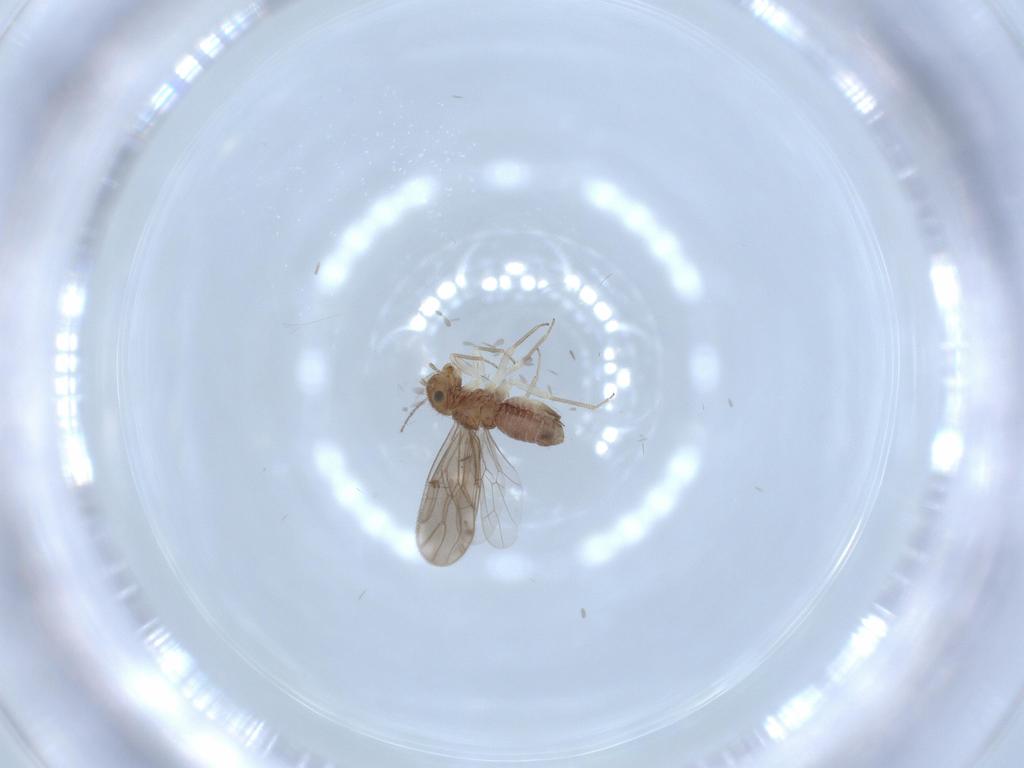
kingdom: Animalia
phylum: Arthropoda
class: Insecta
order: Psocodea
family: Ectopsocidae
